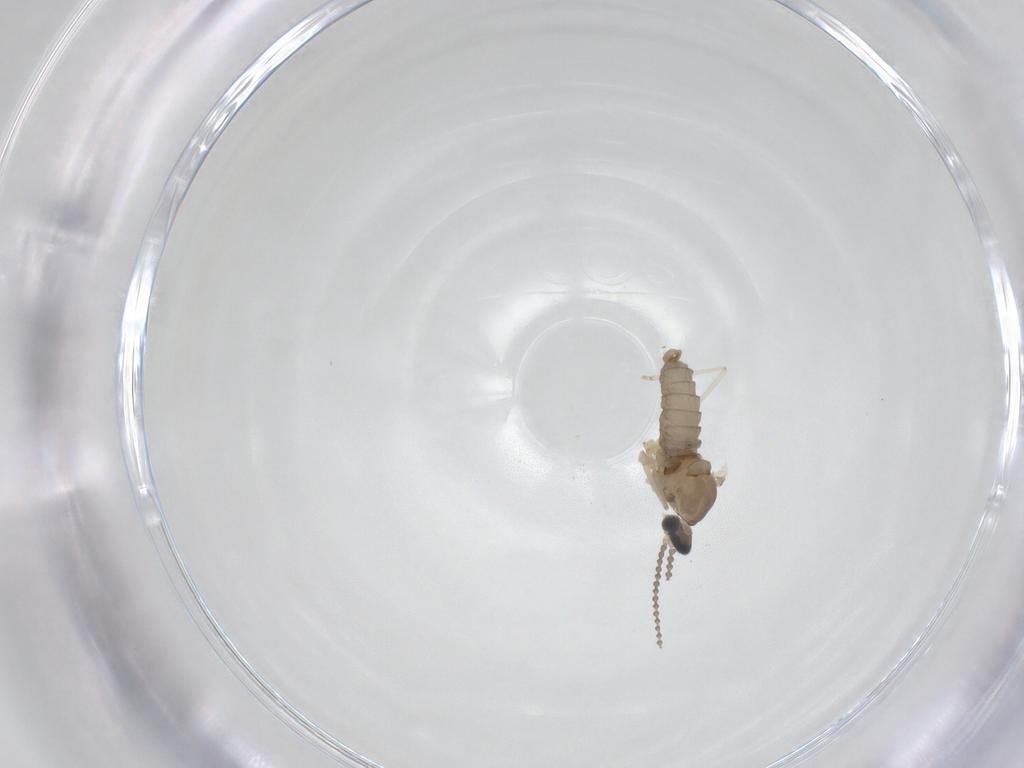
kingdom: Animalia
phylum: Arthropoda
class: Insecta
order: Diptera
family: Cecidomyiidae
